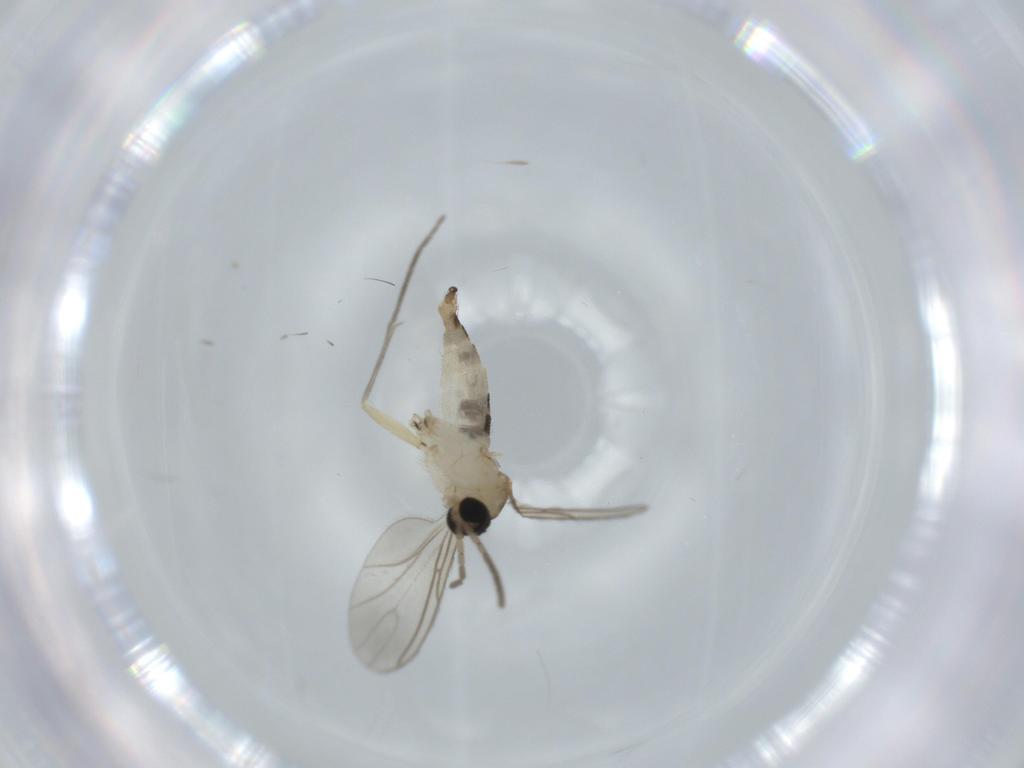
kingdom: Animalia
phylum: Arthropoda
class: Insecta
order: Diptera
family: Sciaridae
